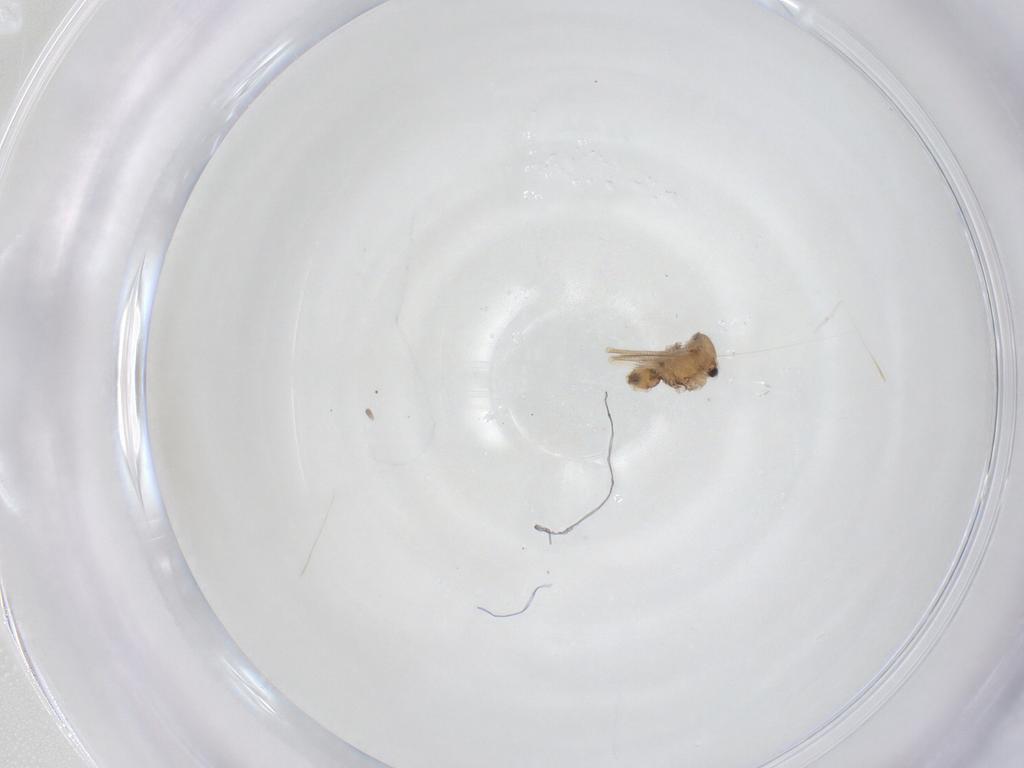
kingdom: Animalia
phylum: Arthropoda
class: Insecta
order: Psocodea
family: Ectopsocidae
